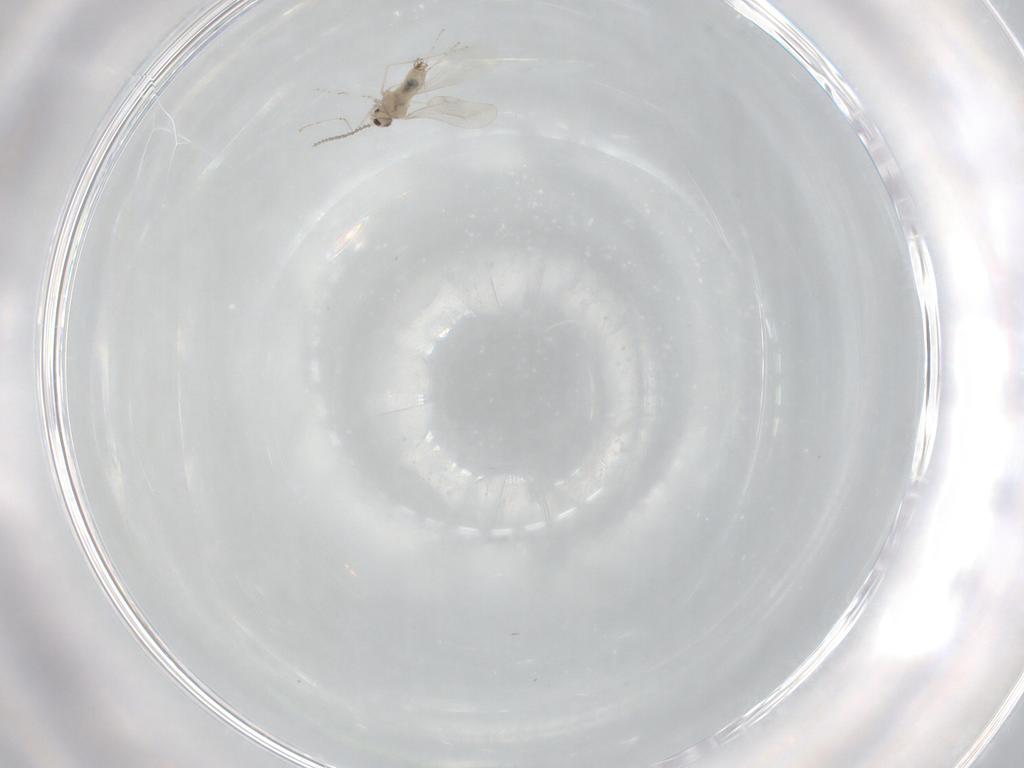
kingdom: Animalia
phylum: Arthropoda
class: Insecta
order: Diptera
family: Cecidomyiidae
